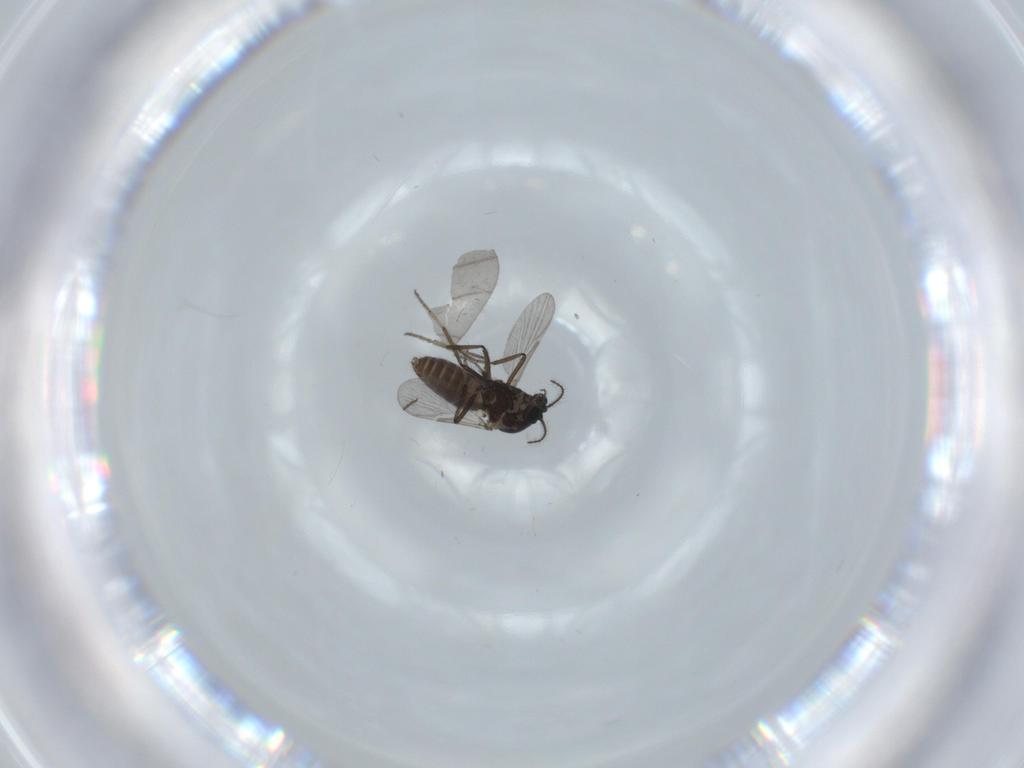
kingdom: Animalia
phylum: Arthropoda
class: Insecta
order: Diptera
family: Ceratopogonidae
